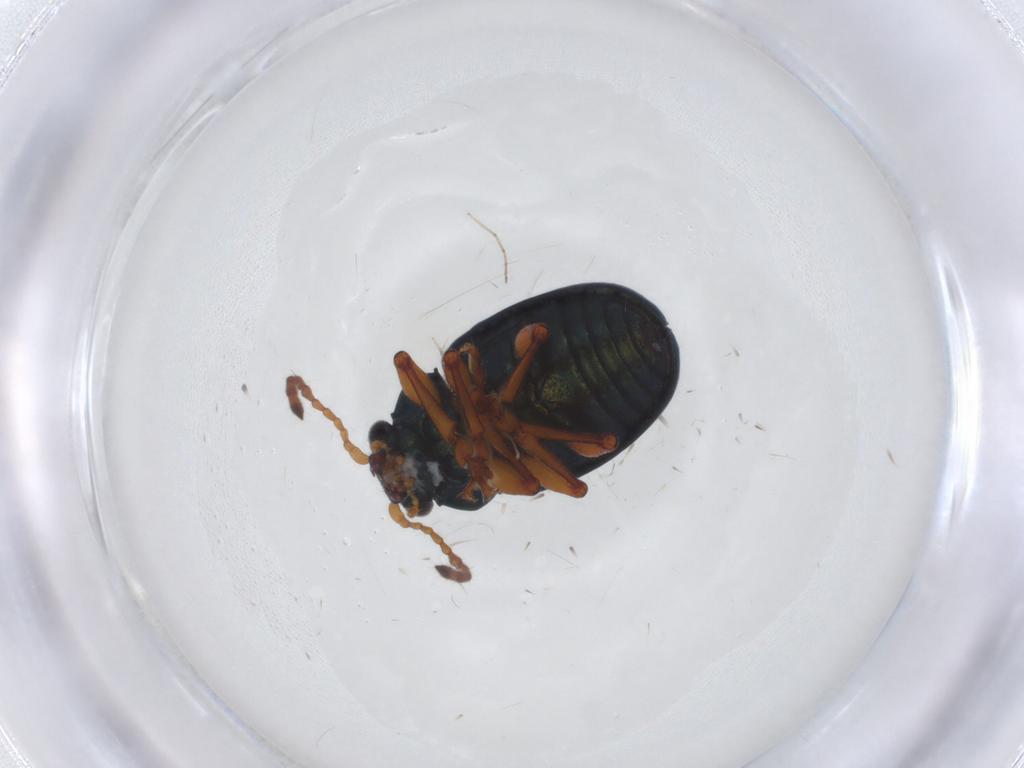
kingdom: Animalia
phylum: Arthropoda
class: Insecta
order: Coleoptera
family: Chrysomelidae
